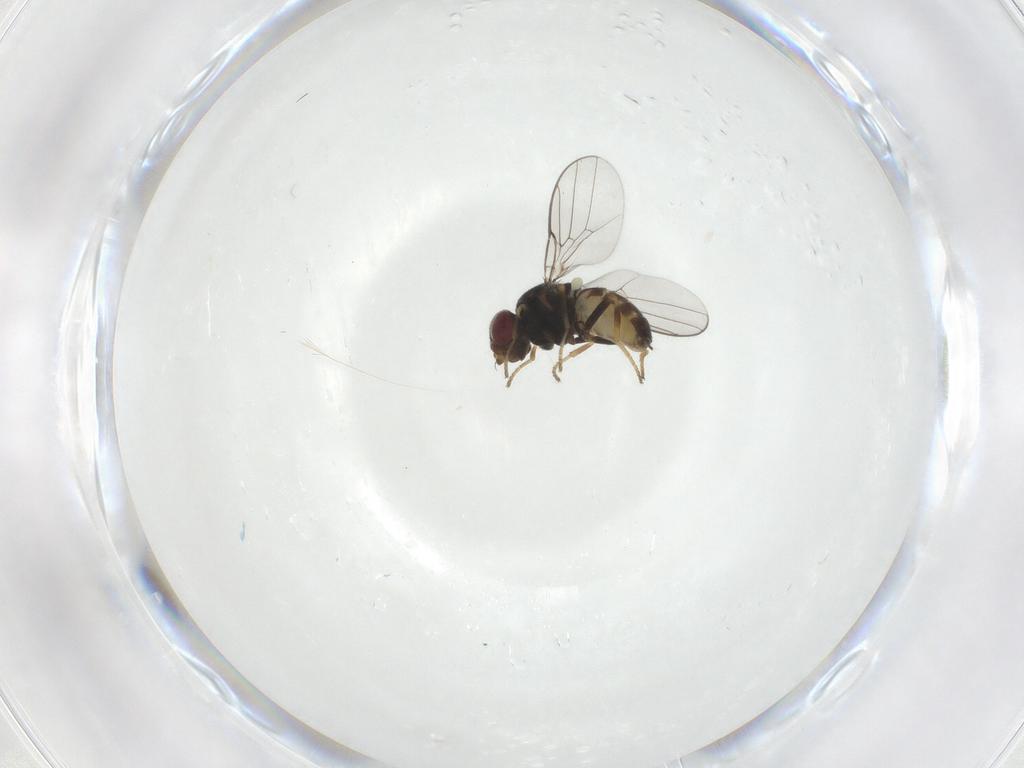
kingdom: Animalia
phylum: Arthropoda
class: Insecta
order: Diptera
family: Chloropidae
